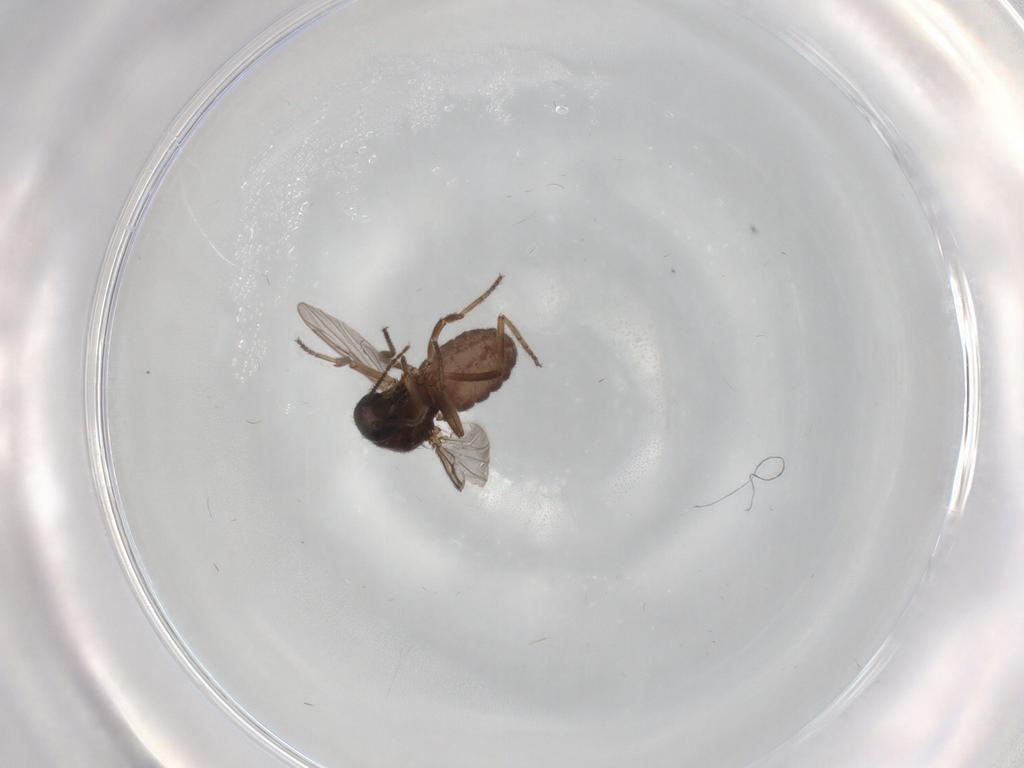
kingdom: Animalia
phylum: Arthropoda
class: Insecta
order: Diptera
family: Ceratopogonidae
